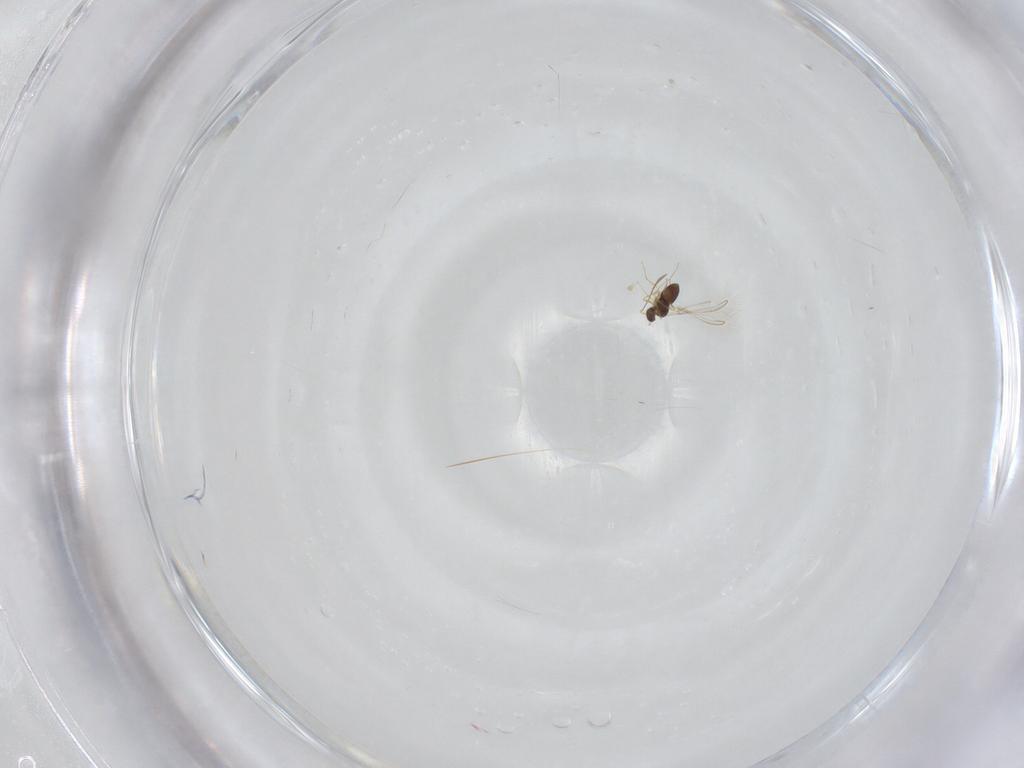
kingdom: Animalia
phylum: Arthropoda
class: Insecta
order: Hymenoptera
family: Mymaridae
